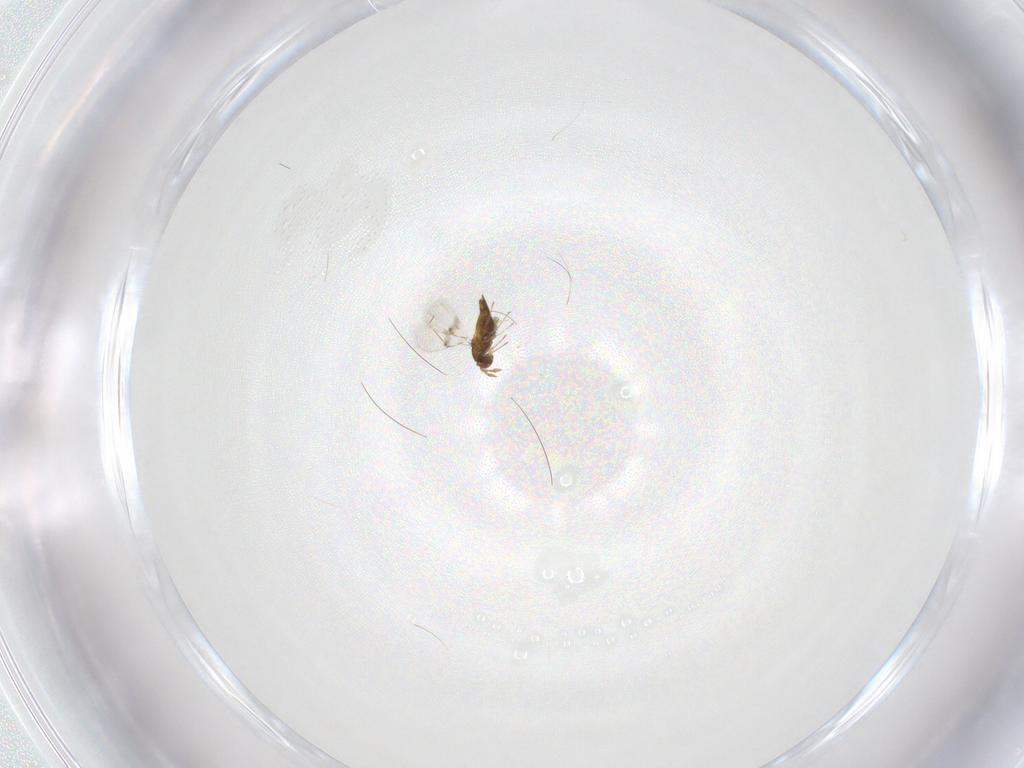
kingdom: Animalia
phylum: Arthropoda
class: Insecta
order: Hymenoptera
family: Trichogrammatidae
